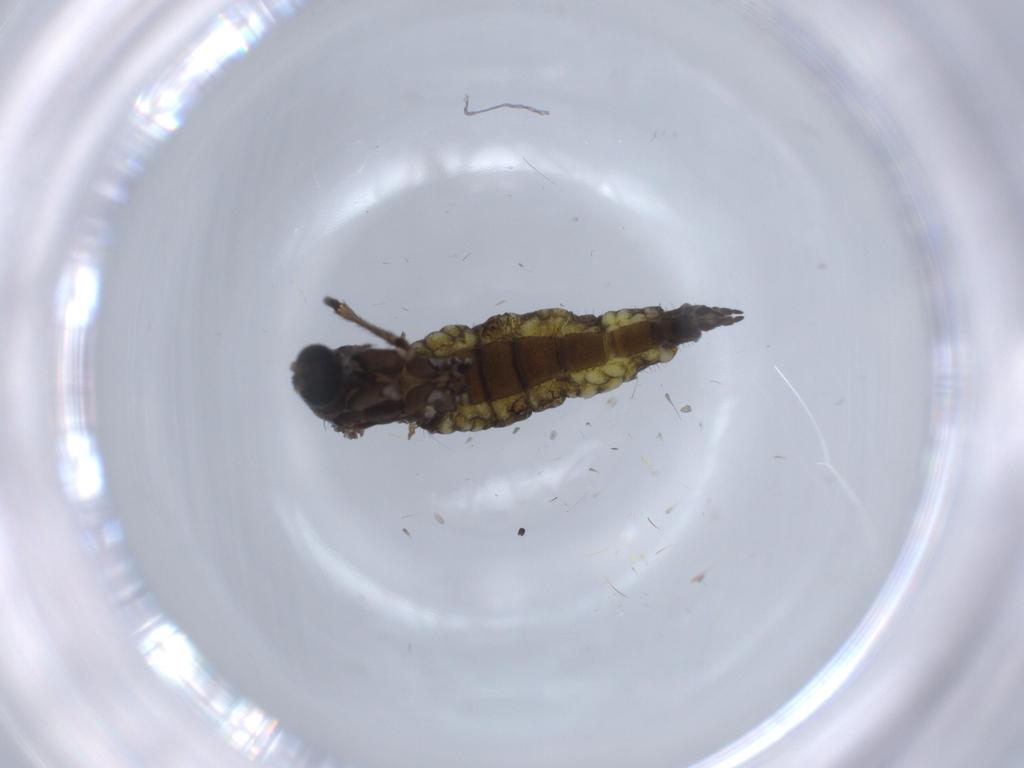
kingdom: Animalia
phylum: Arthropoda
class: Insecta
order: Diptera
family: Sciaridae
